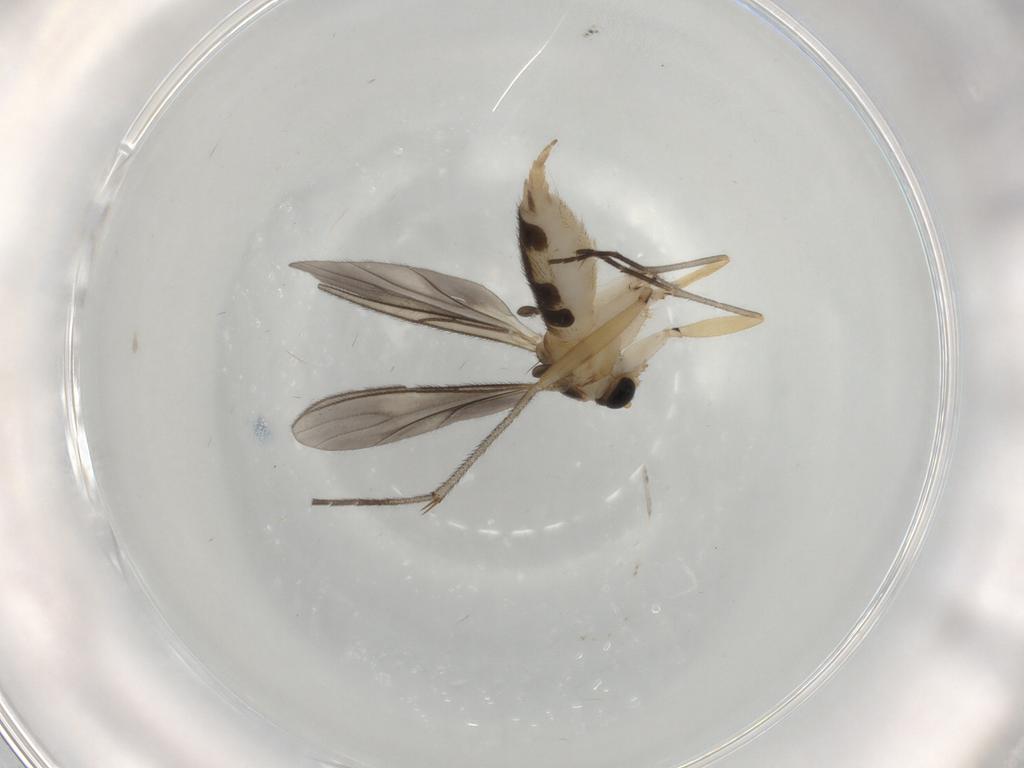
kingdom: Animalia
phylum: Arthropoda
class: Insecta
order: Diptera
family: Sciaridae
